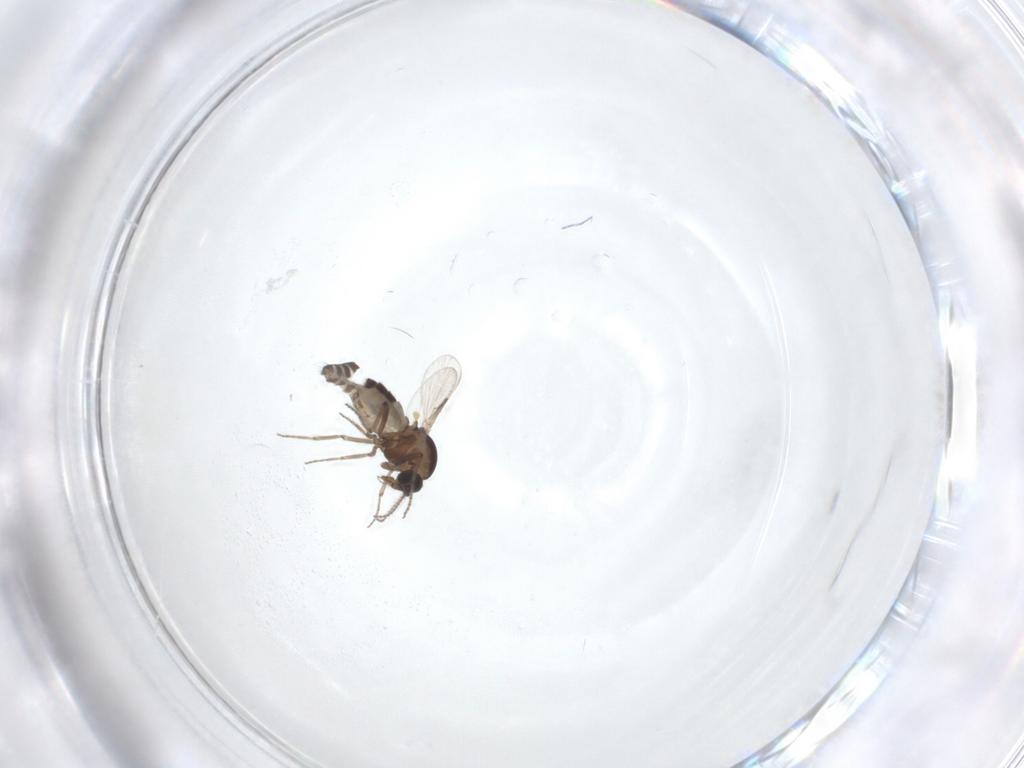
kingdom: Animalia
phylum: Arthropoda
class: Insecta
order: Diptera
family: Ceratopogonidae
